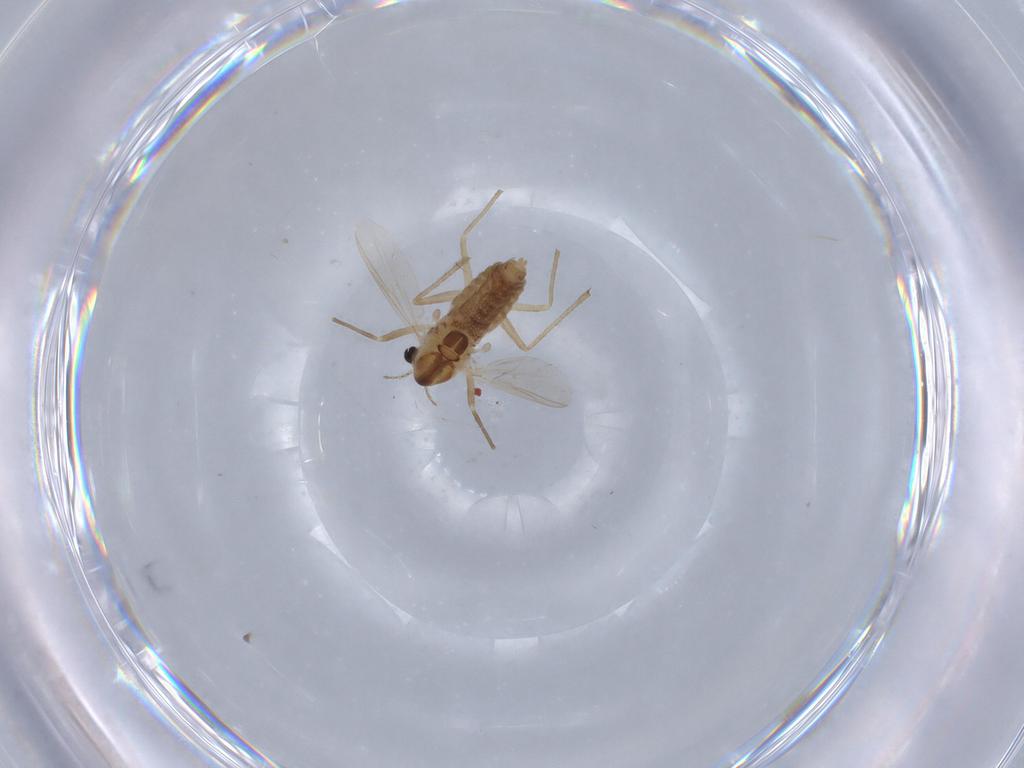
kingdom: Animalia
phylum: Arthropoda
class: Insecta
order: Diptera
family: Chironomidae
